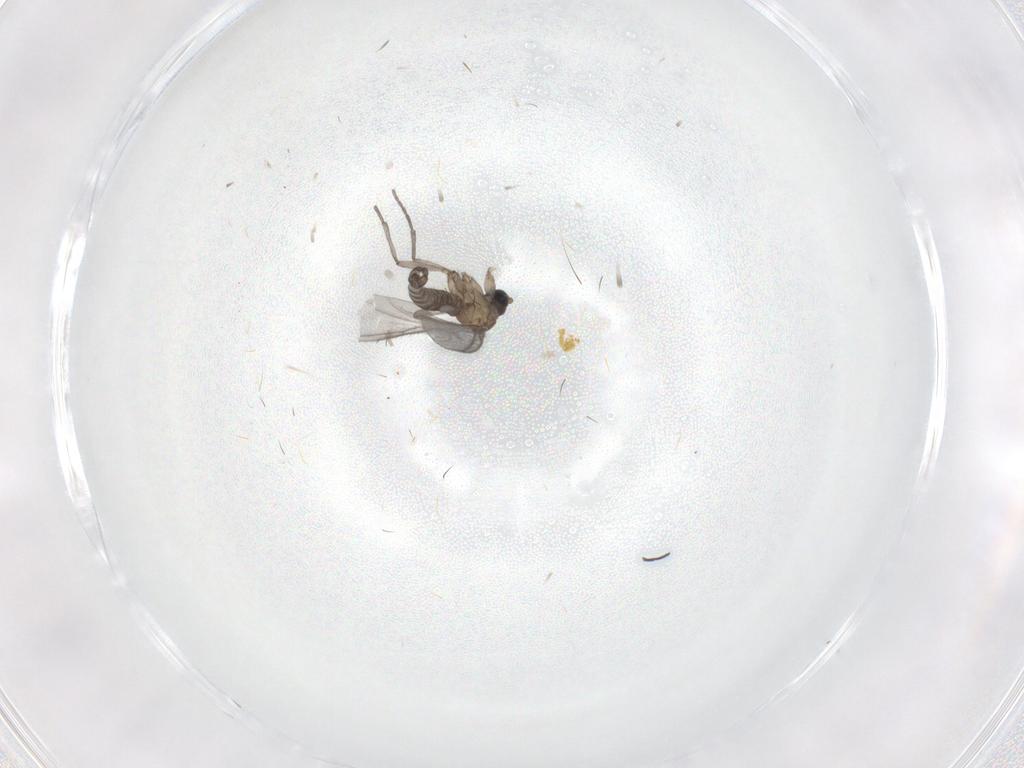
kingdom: Animalia
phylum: Arthropoda
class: Insecta
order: Diptera
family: Sciaridae
